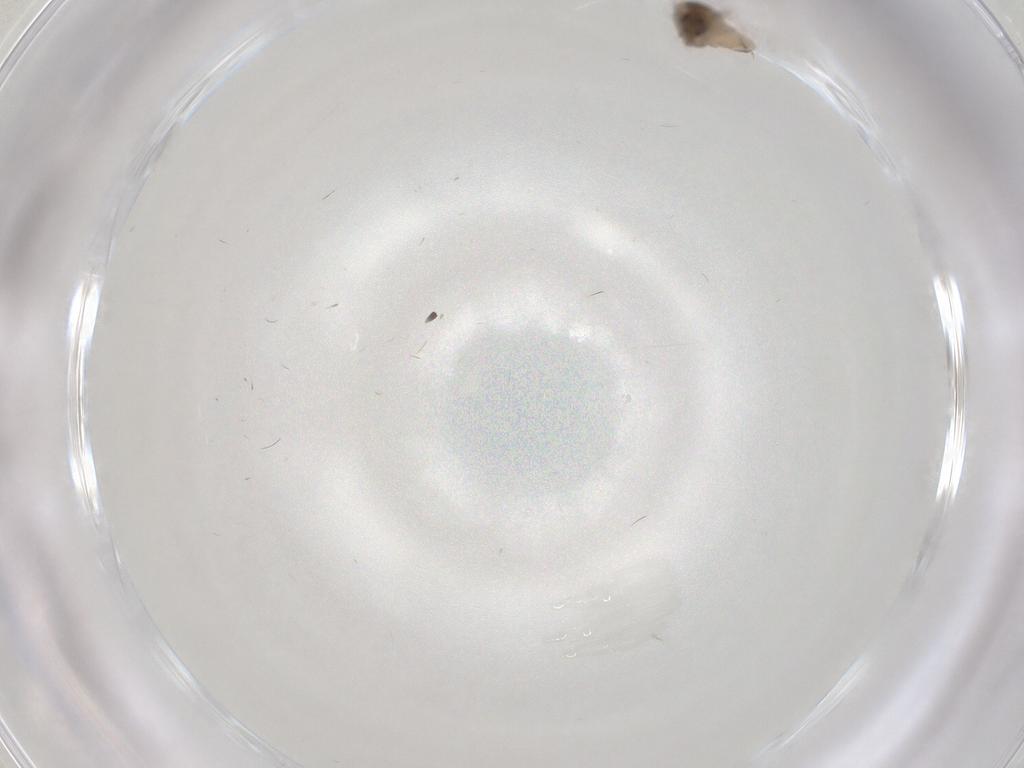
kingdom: Animalia
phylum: Arthropoda
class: Insecta
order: Diptera
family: Psychodidae
